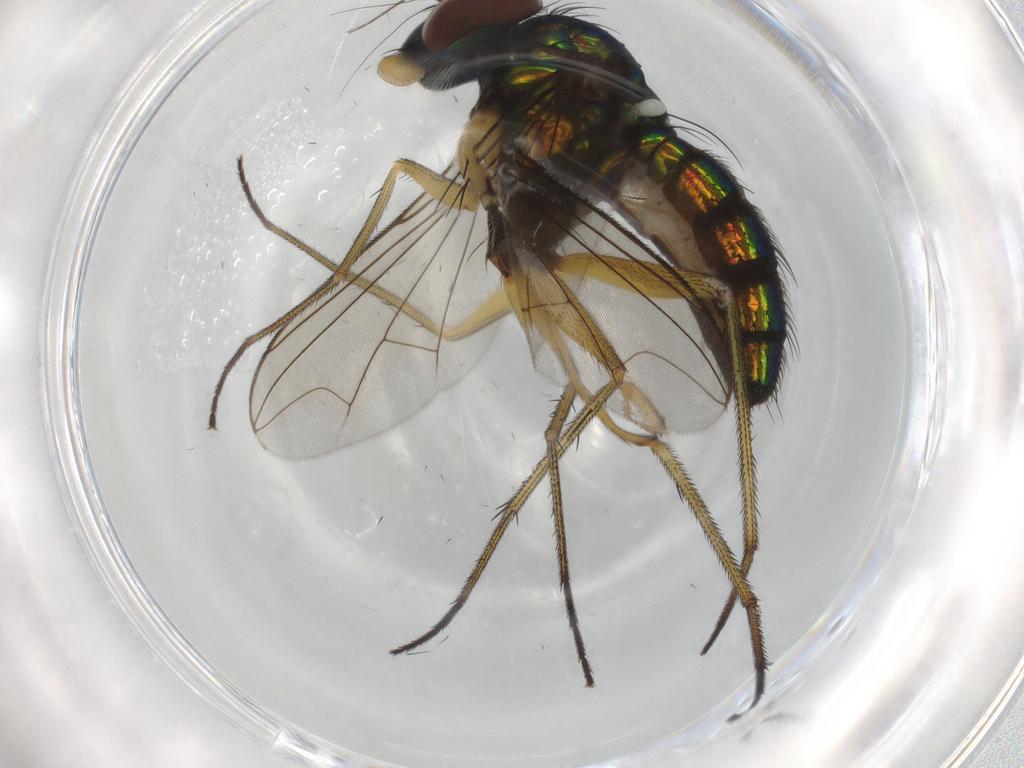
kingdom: Animalia
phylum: Arthropoda
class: Insecta
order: Diptera
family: Dolichopodidae
